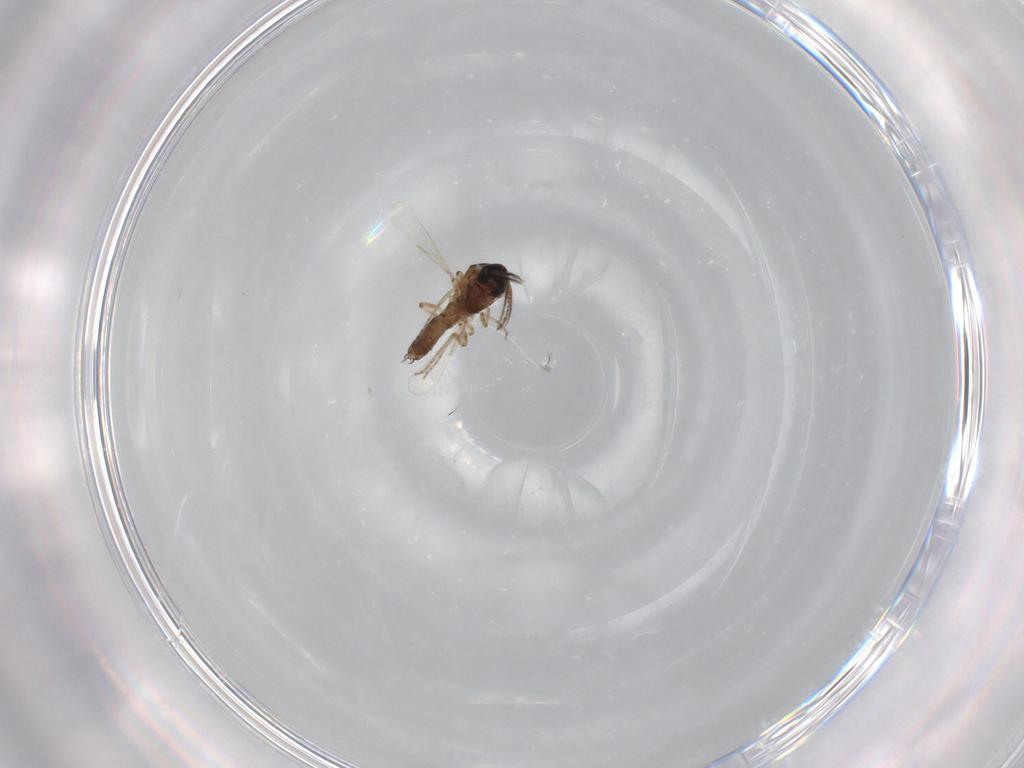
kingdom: Animalia
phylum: Arthropoda
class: Insecta
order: Diptera
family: Ceratopogonidae
